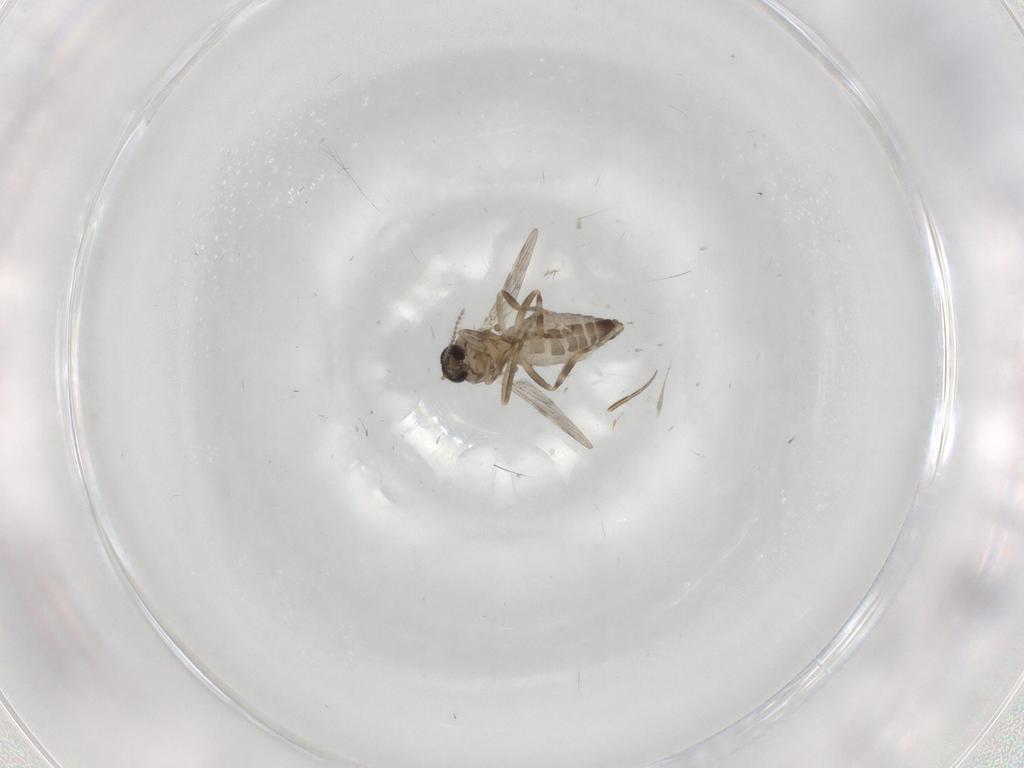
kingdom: Animalia
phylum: Arthropoda
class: Insecta
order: Diptera
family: Ceratopogonidae
